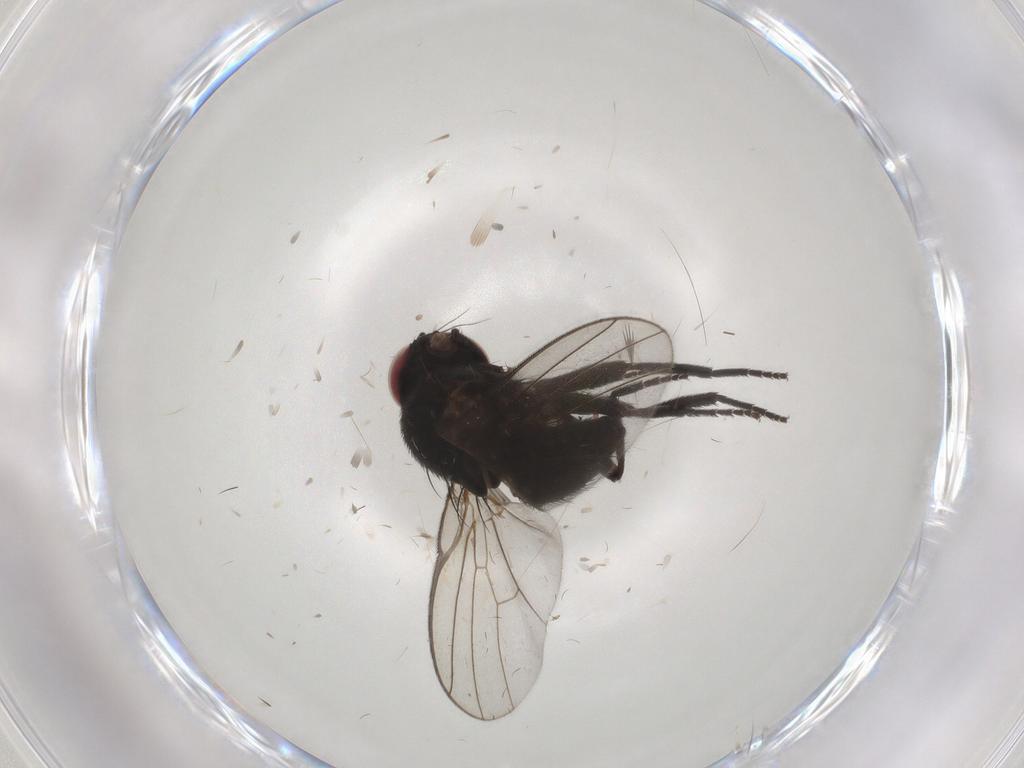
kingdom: Animalia
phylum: Arthropoda
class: Insecta
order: Diptera
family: Agromyzidae
